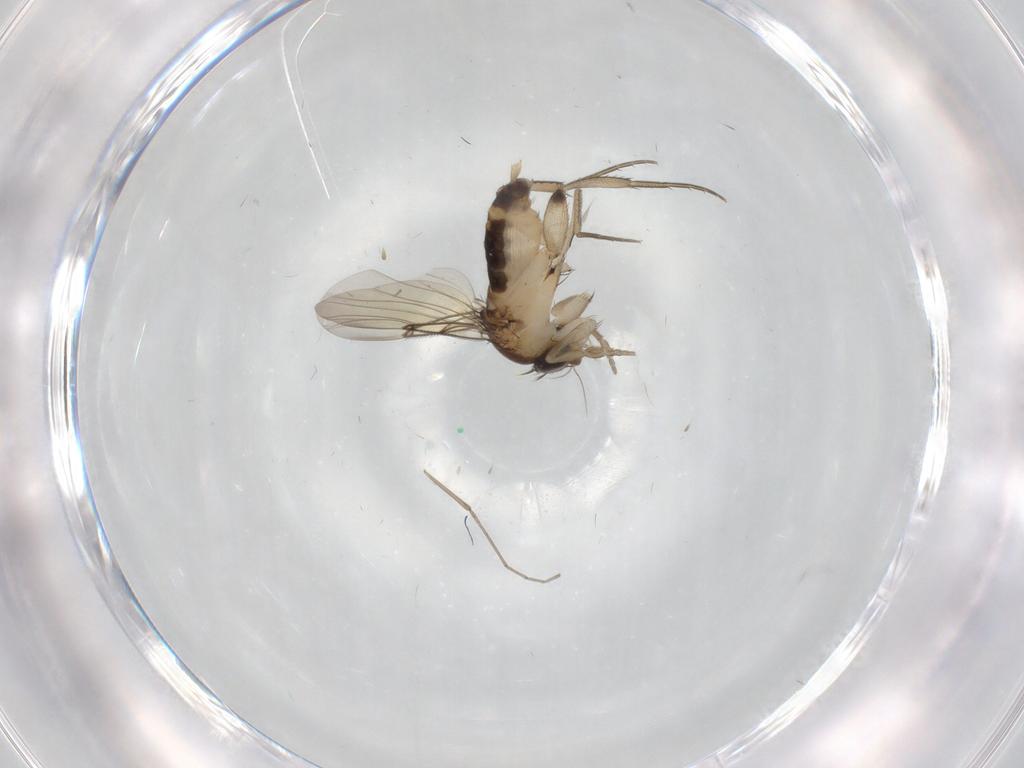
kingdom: Animalia
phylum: Arthropoda
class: Insecta
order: Diptera
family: Phoridae
